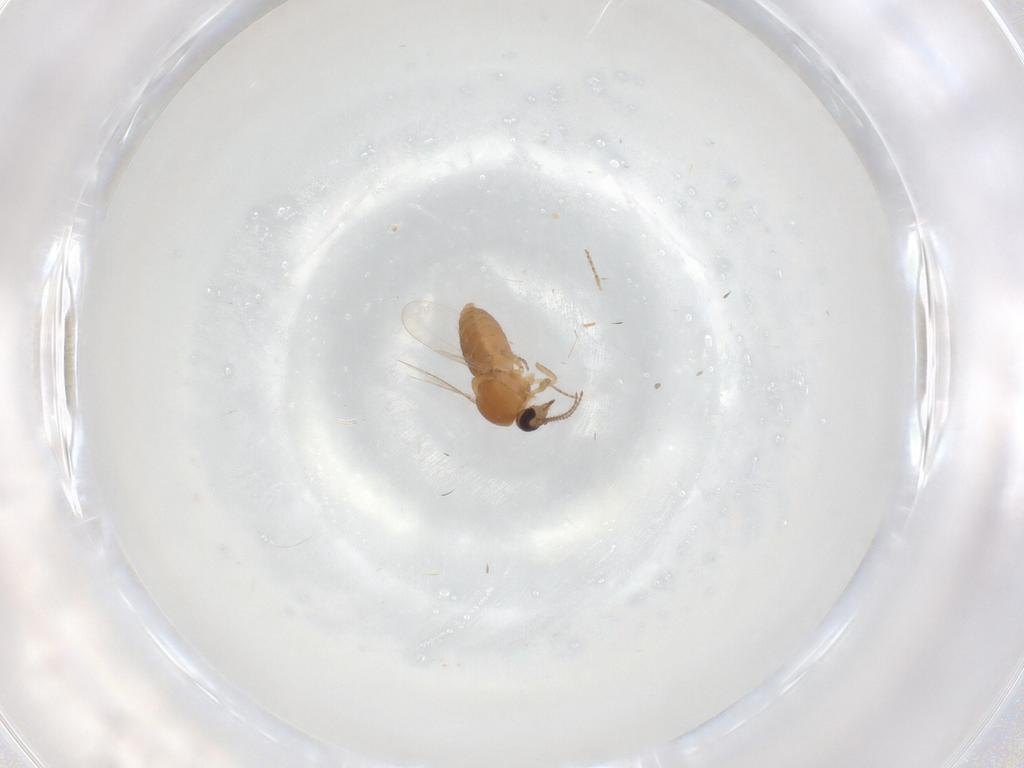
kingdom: Animalia
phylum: Arthropoda
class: Insecta
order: Diptera
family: Ceratopogonidae
